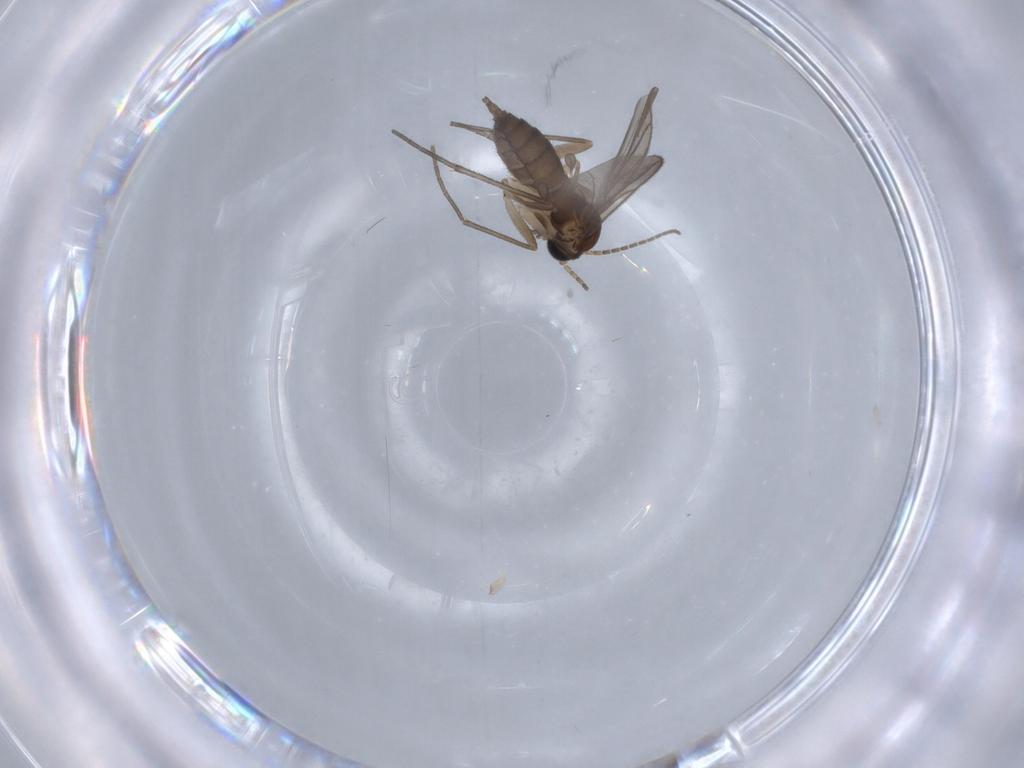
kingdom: Animalia
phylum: Arthropoda
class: Insecta
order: Diptera
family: Sciaridae
